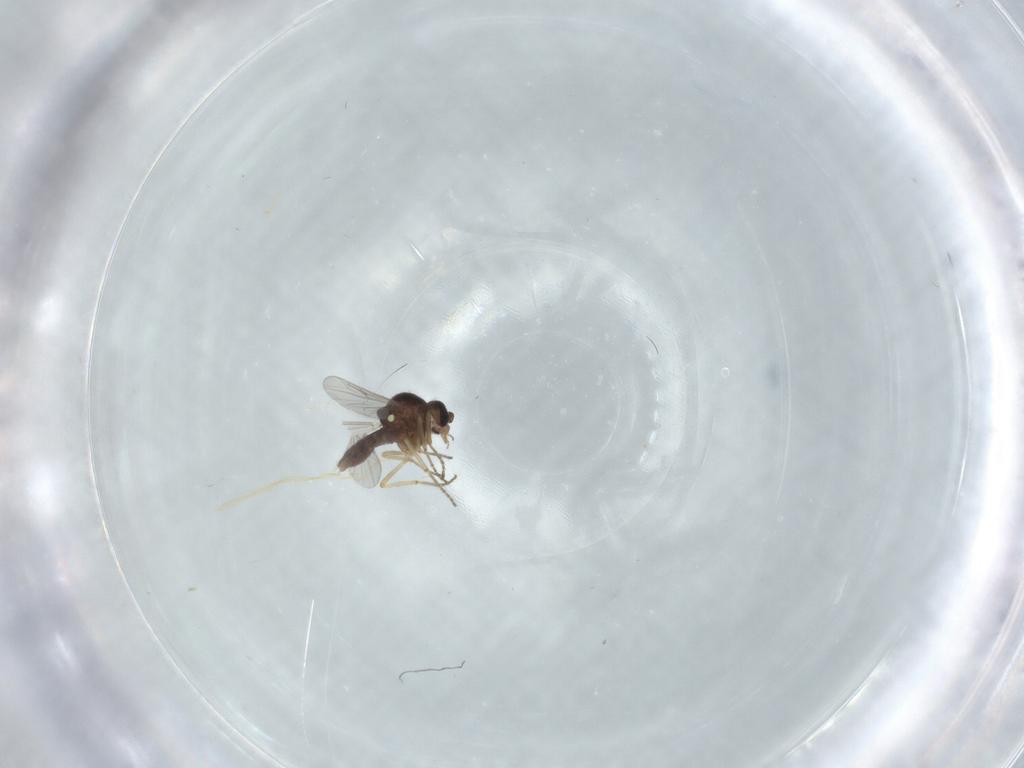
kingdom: Animalia
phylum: Arthropoda
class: Insecta
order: Diptera
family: Ceratopogonidae
